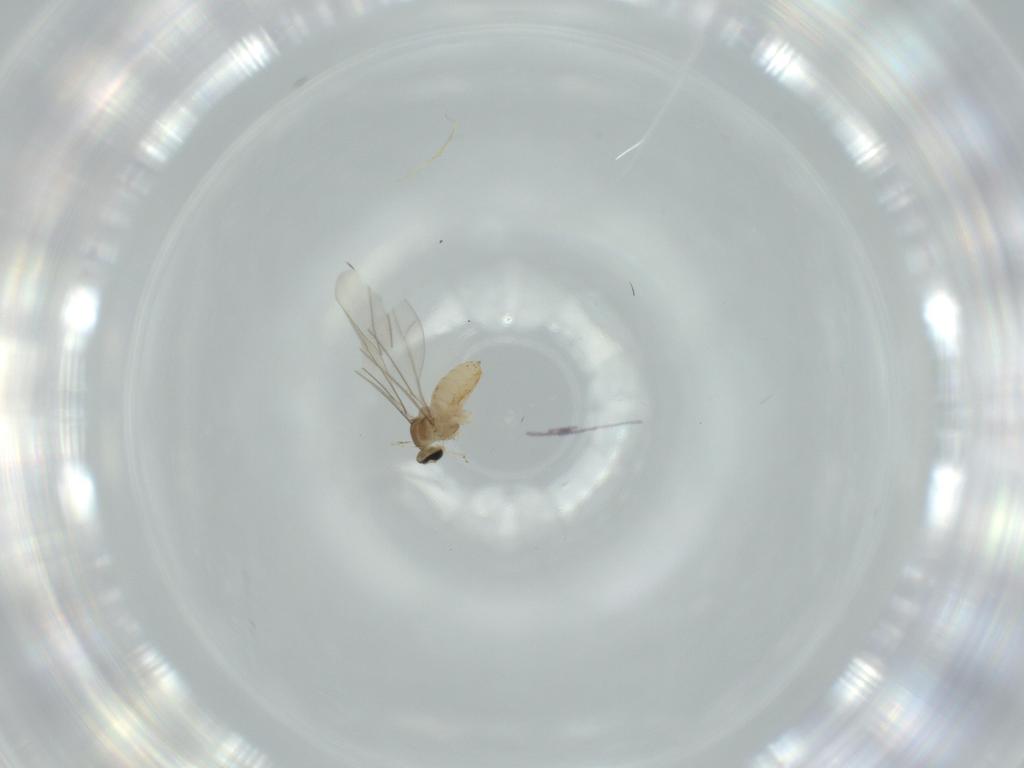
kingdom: Animalia
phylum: Arthropoda
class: Insecta
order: Diptera
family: Cecidomyiidae
